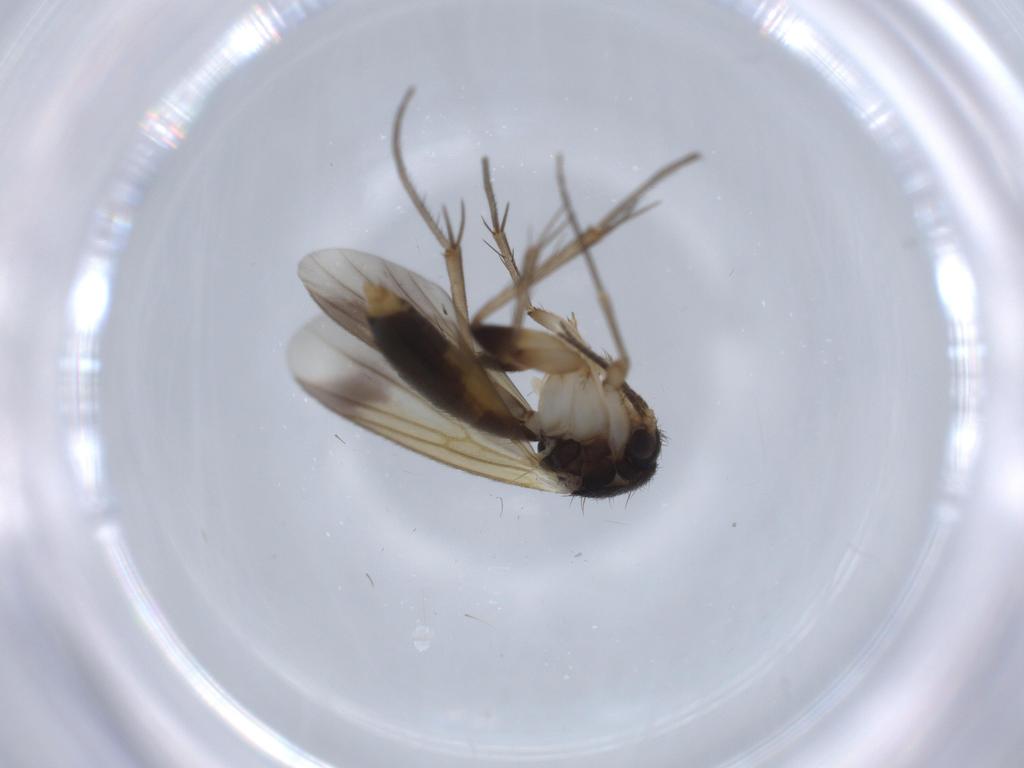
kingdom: Animalia
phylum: Arthropoda
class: Insecta
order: Diptera
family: Mycetophilidae
